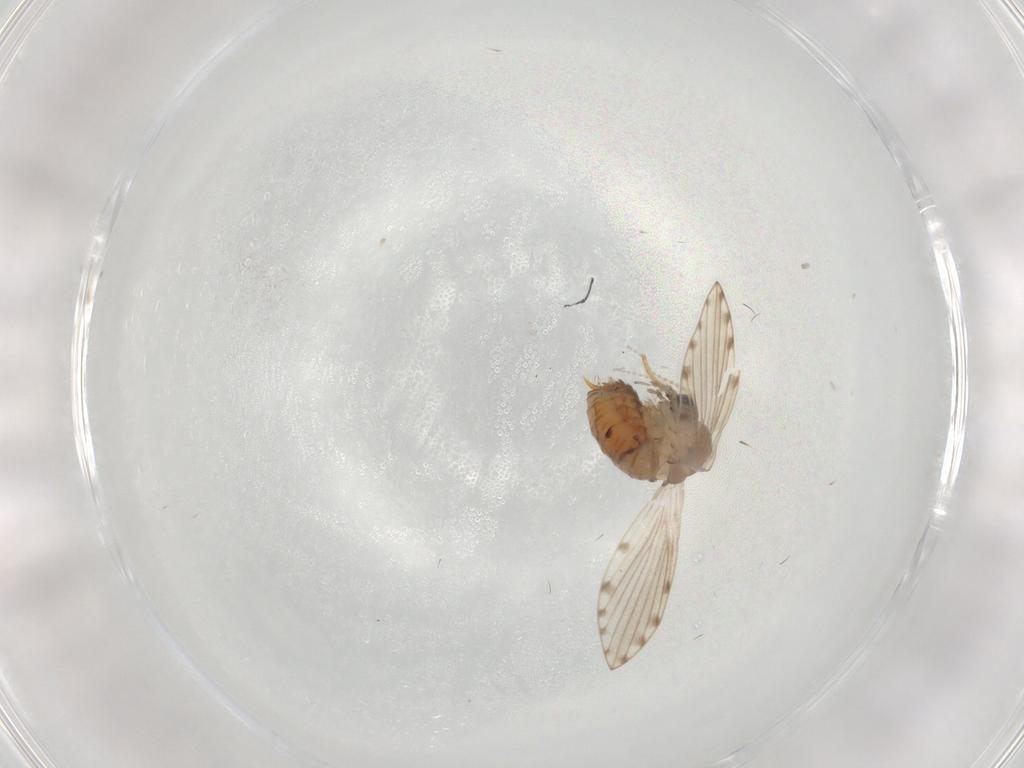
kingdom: Animalia
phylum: Arthropoda
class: Insecta
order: Diptera
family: Psychodidae
